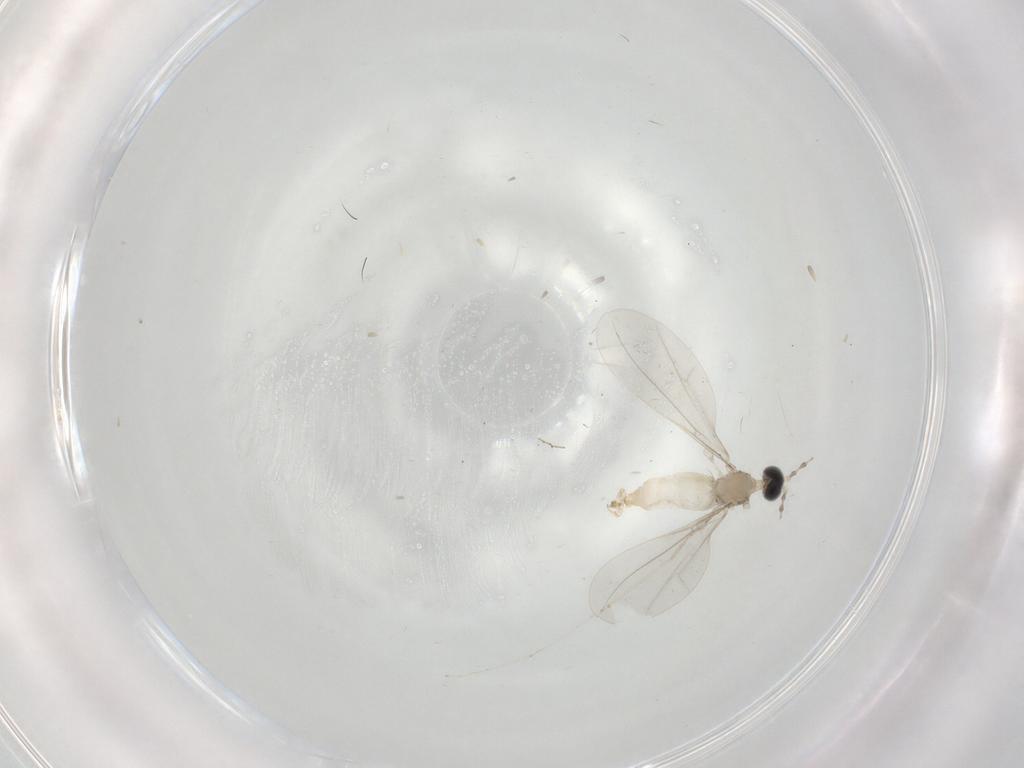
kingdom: Animalia
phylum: Arthropoda
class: Insecta
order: Diptera
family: Cecidomyiidae
